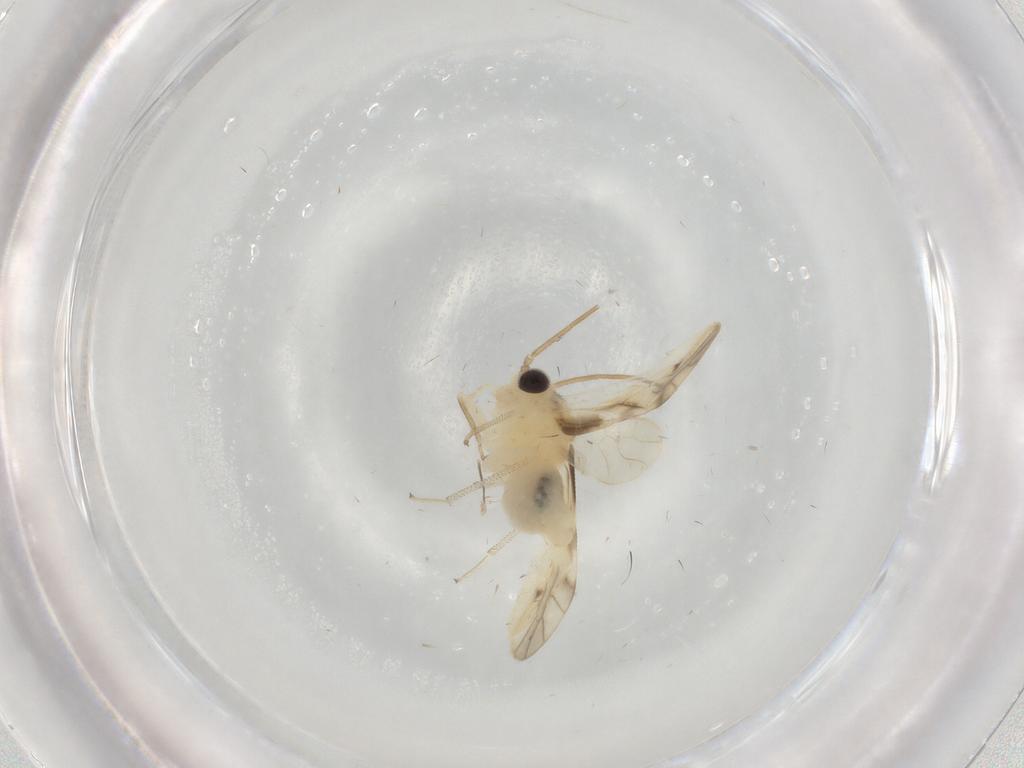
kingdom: Animalia
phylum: Arthropoda
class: Insecta
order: Psocodea
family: Caeciliusidae
